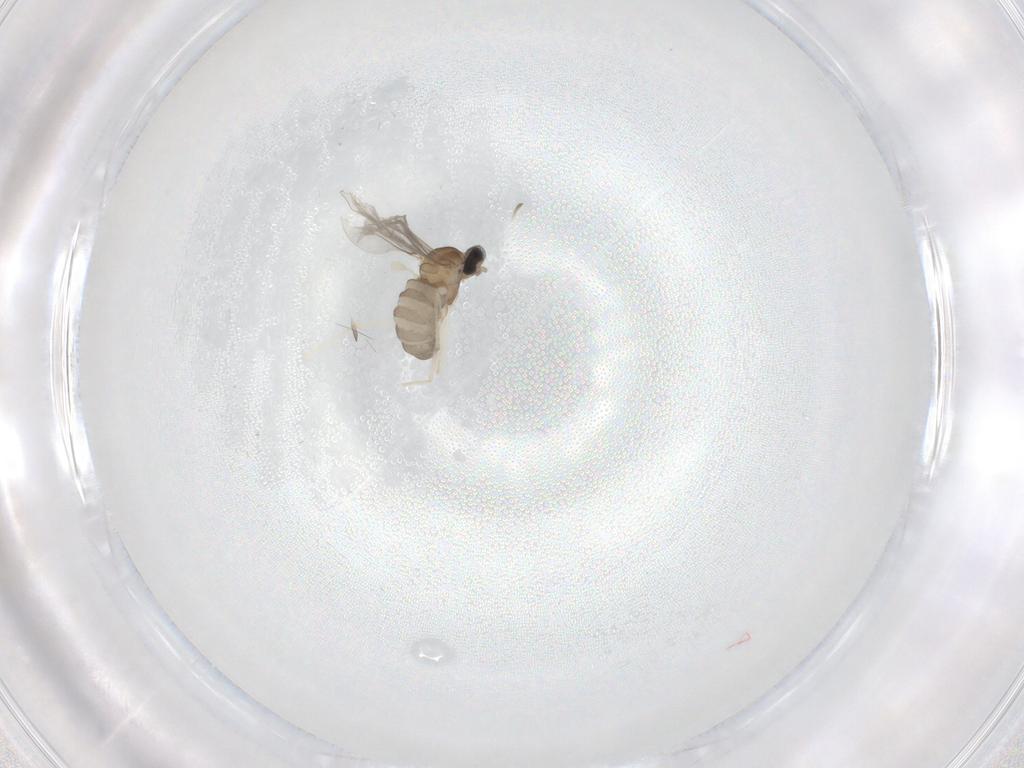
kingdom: Animalia
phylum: Arthropoda
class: Insecta
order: Diptera
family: Cecidomyiidae
